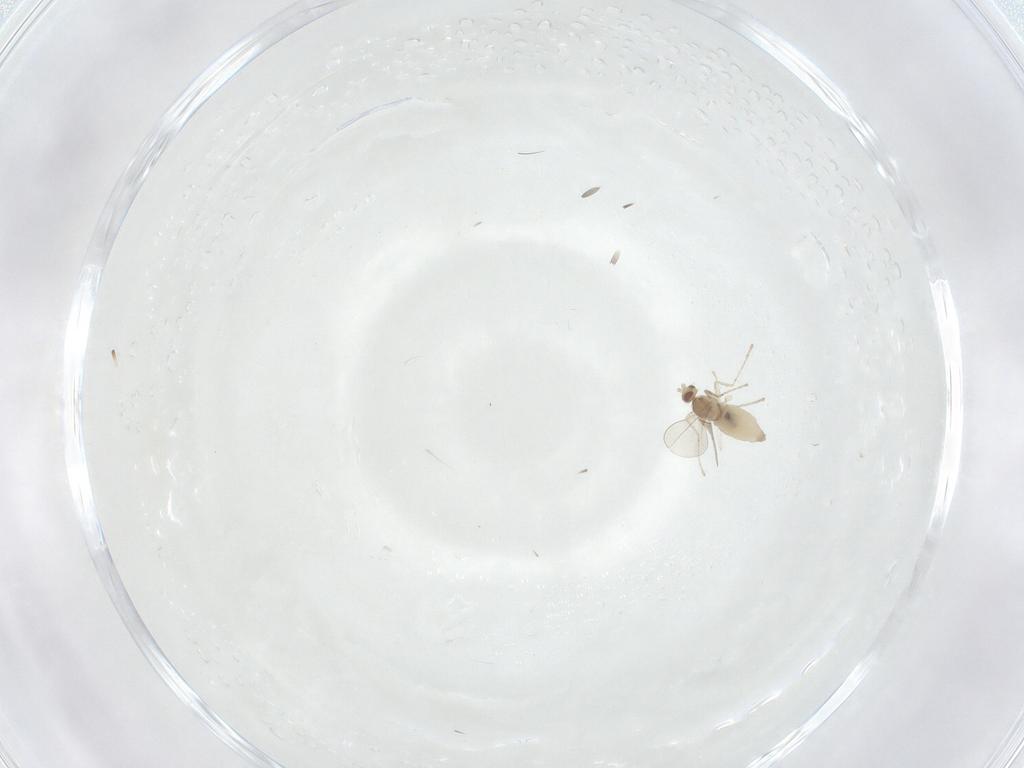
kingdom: Animalia
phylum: Arthropoda
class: Insecta
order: Diptera
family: Cecidomyiidae
